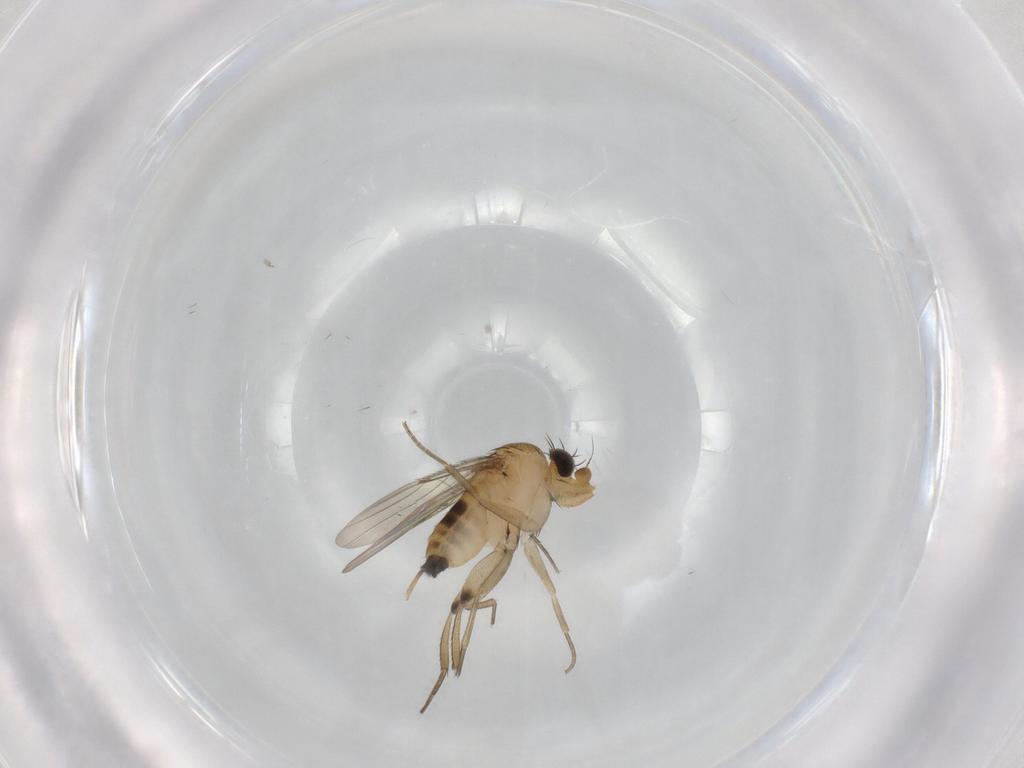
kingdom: Animalia
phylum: Arthropoda
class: Insecta
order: Diptera
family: Phoridae
